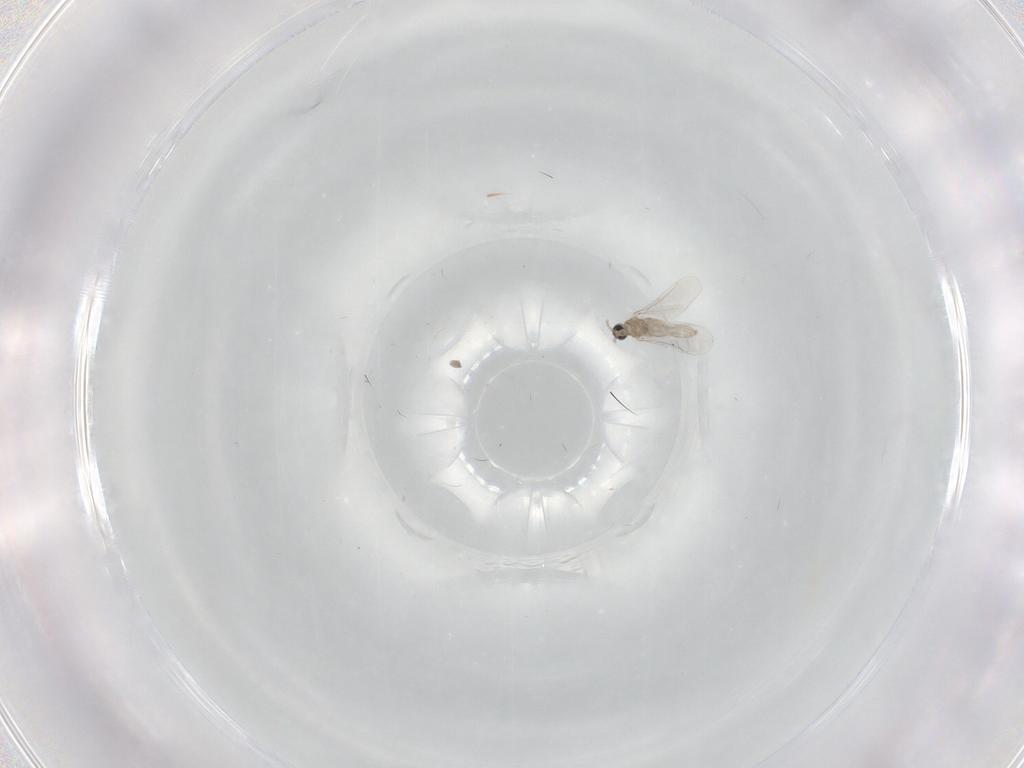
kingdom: Animalia
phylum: Arthropoda
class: Insecta
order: Diptera
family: Cecidomyiidae
